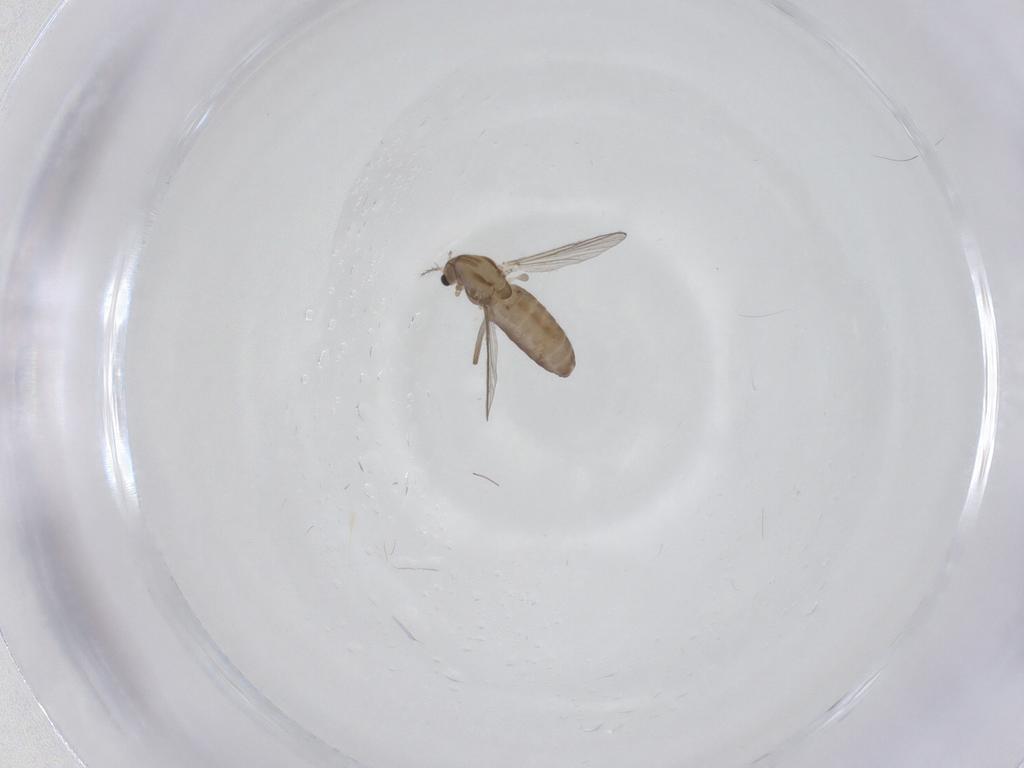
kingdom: Animalia
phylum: Arthropoda
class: Insecta
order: Diptera
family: Chironomidae
